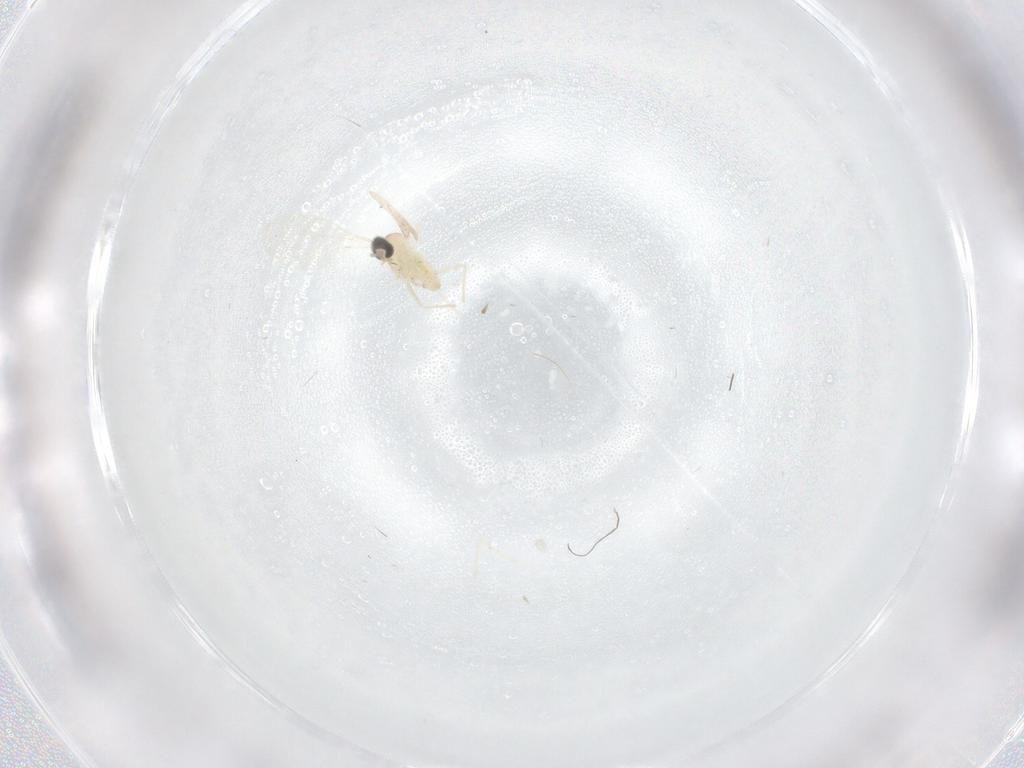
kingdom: Animalia
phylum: Arthropoda
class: Insecta
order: Diptera
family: Cecidomyiidae
